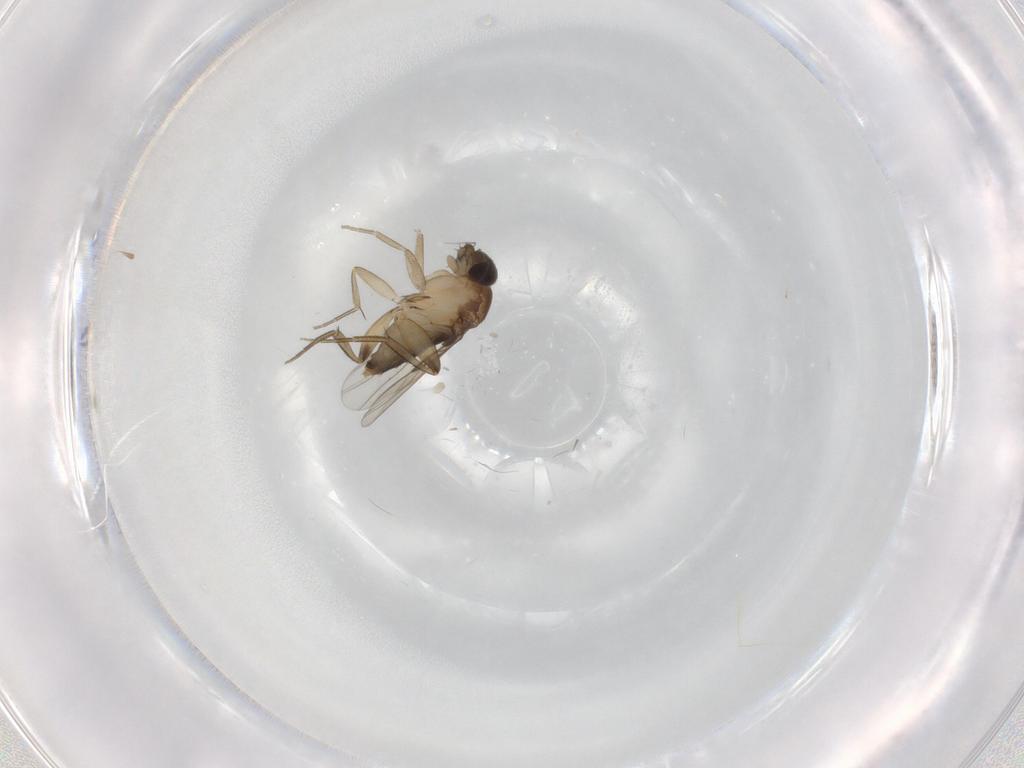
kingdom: Animalia
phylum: Arthropoda
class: Insecta
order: Diptera
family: Phoridae
